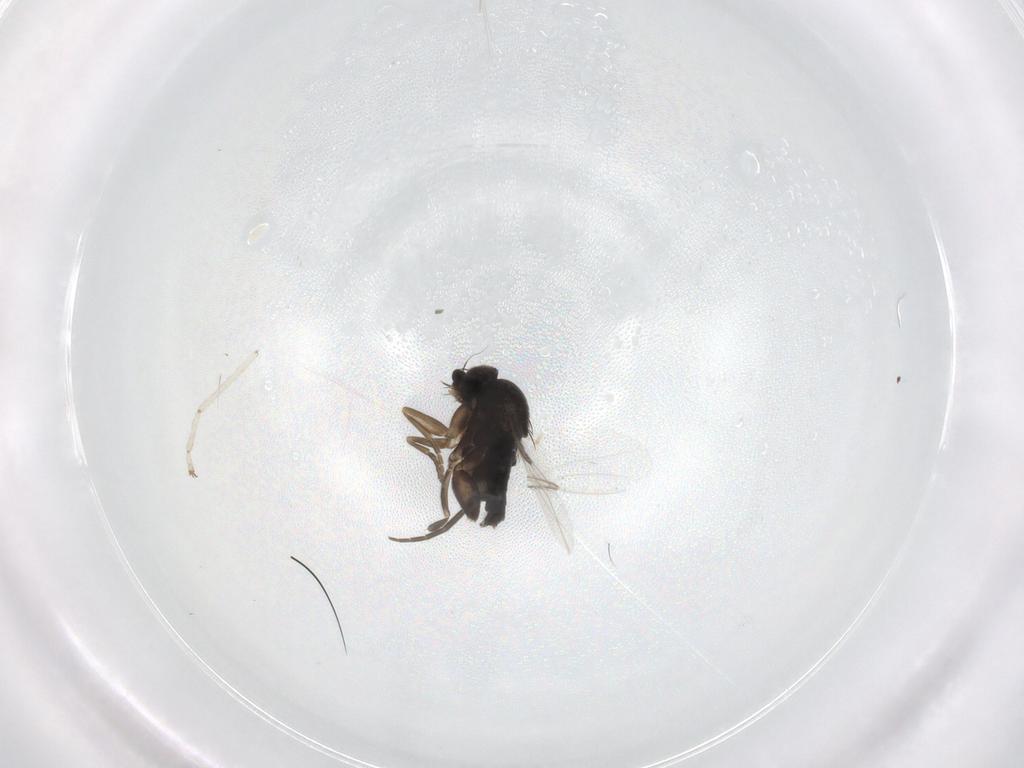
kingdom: Animalia
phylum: Arthropoda
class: Insecta
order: Diptera
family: Phoridae
